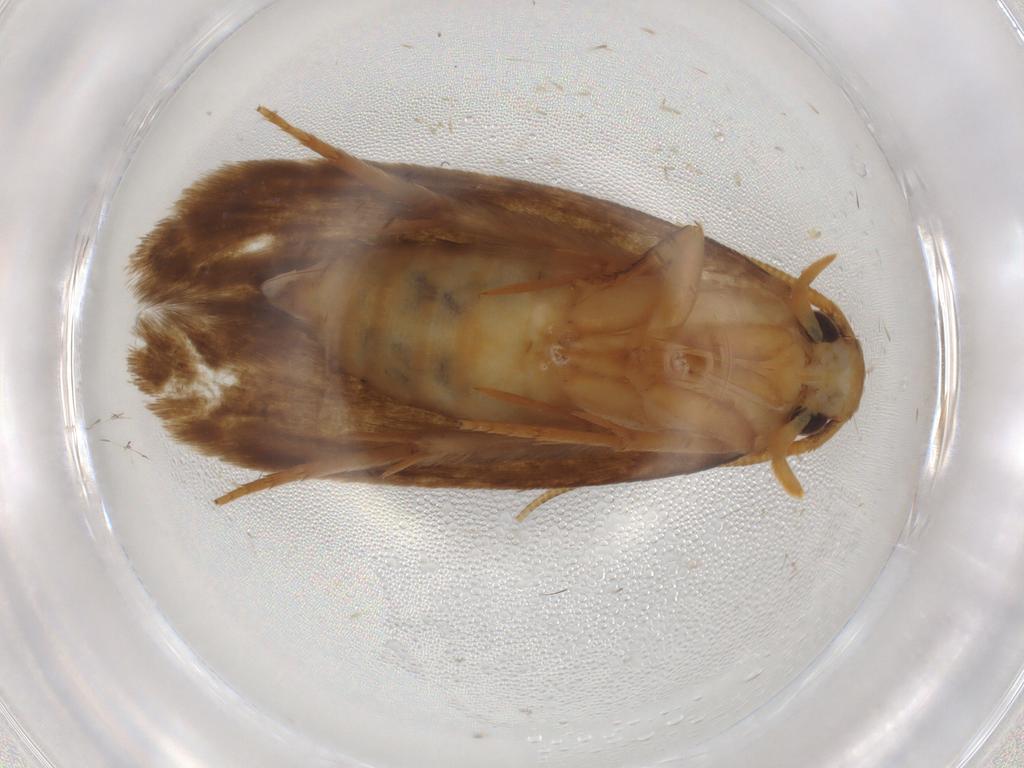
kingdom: Animalia
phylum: Arthropoda
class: Insecta
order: Lepidoptera
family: Tineidae
